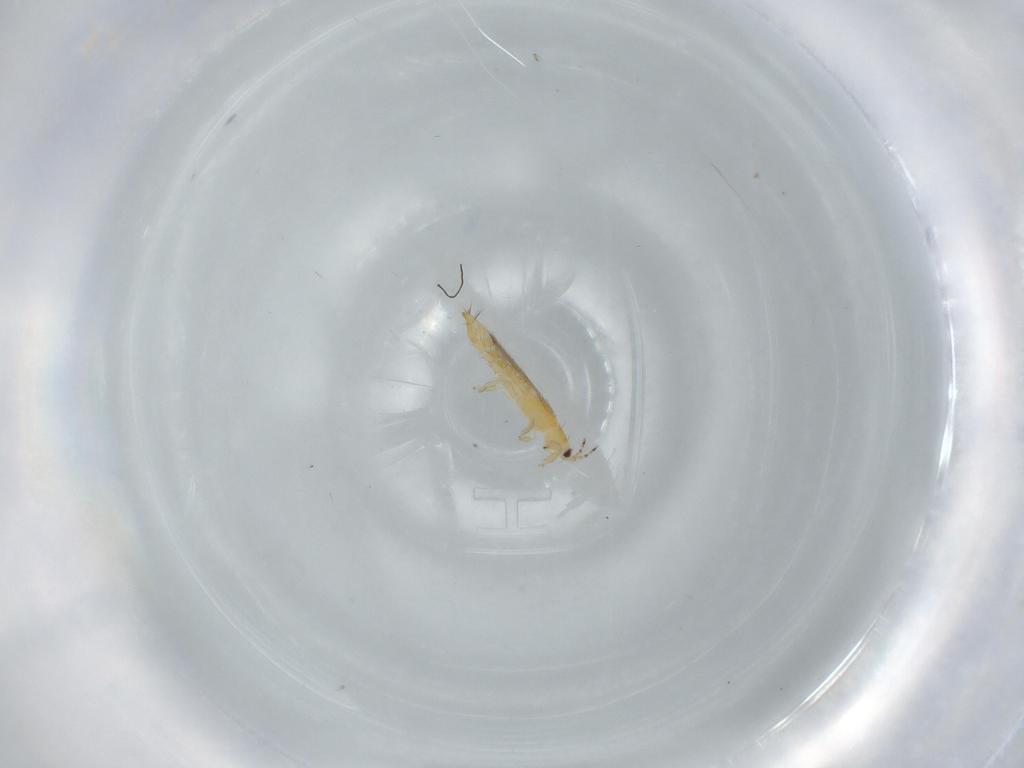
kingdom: Animalia
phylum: Arthropoda
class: Insecta
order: Diptera
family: Chironomidae
